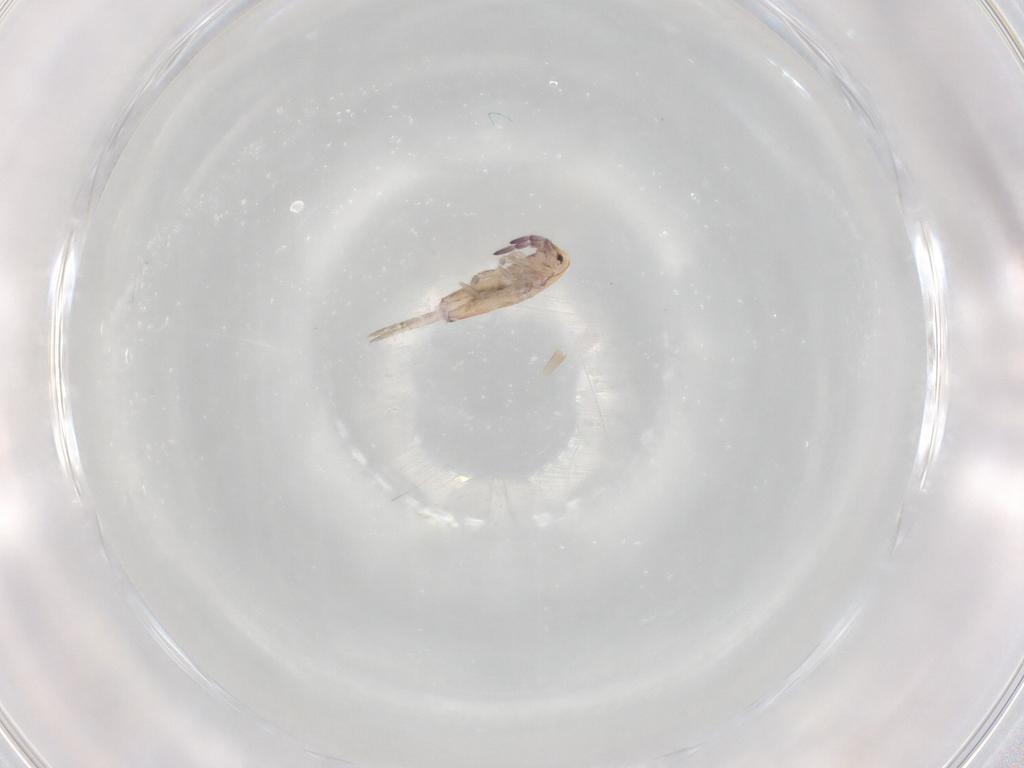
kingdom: Animalia
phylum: Arthropoda
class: Collembola
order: Entomobryomorpha
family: Entomobryidae
